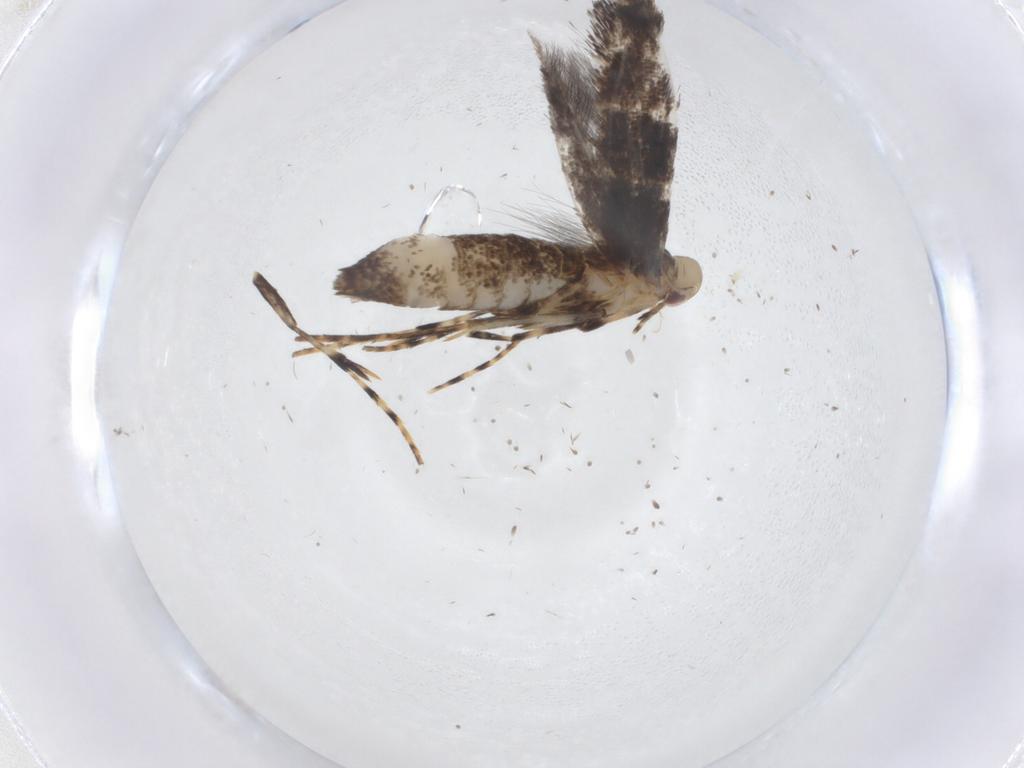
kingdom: Animalia
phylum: Arthropoda
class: Insecta
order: Lepidoptera
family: Gracillariidae
